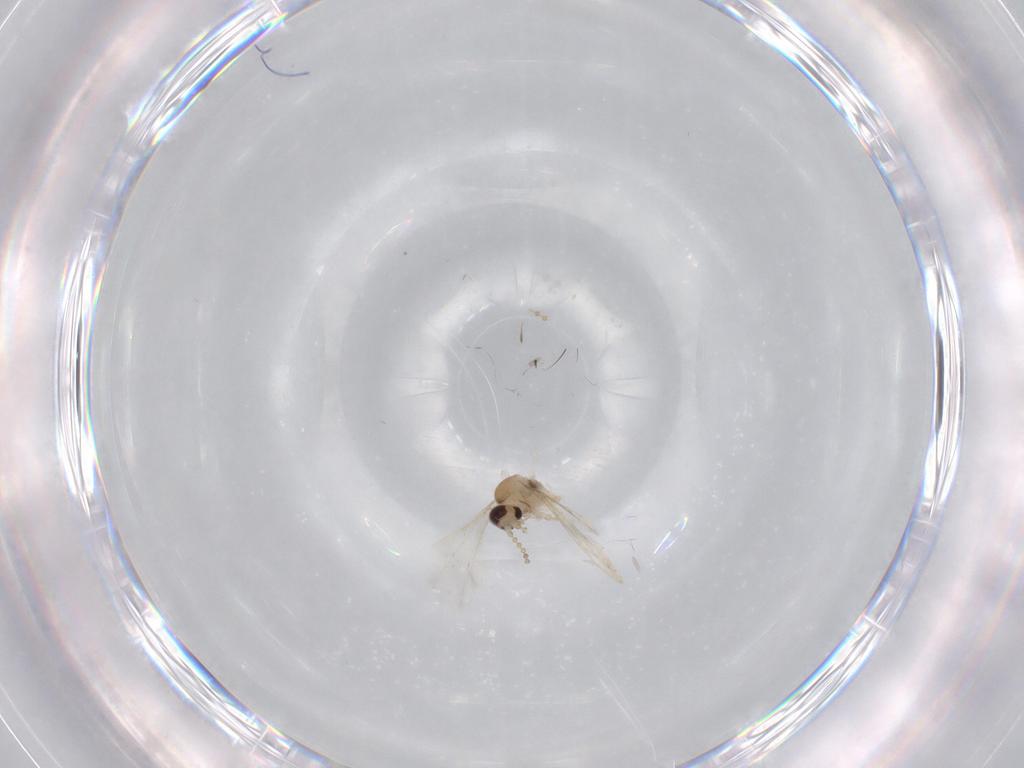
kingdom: Animalia
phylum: Arthropoda
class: Insecta
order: Diptera
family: Cecidomyiidae
